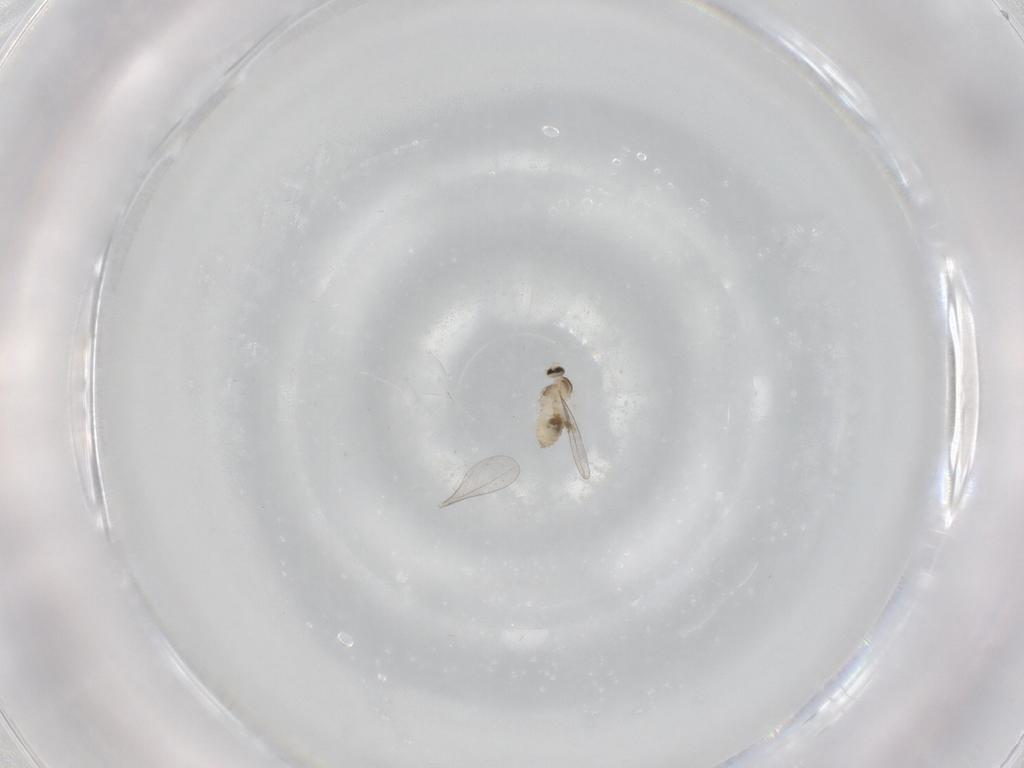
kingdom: Animalia
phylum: Arthropoda
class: Insecta
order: Diptera
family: Cecidomyiidae
